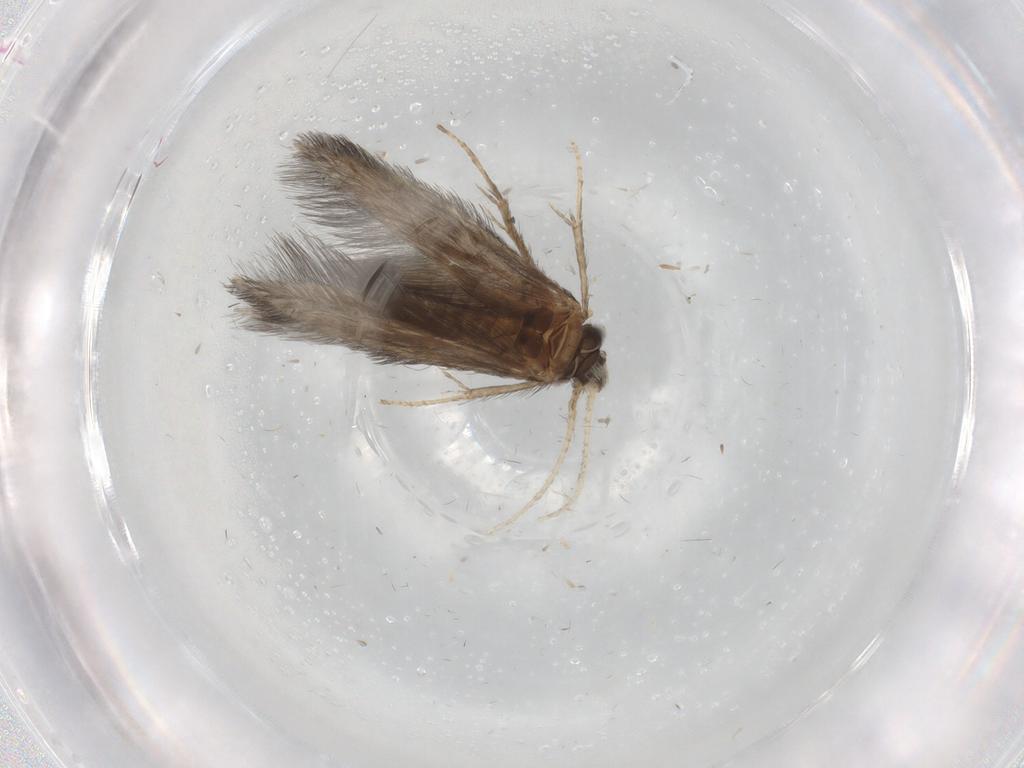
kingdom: Animalia
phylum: Arthropoda
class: Insecta
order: Trichoptera
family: Hydroptilidae
